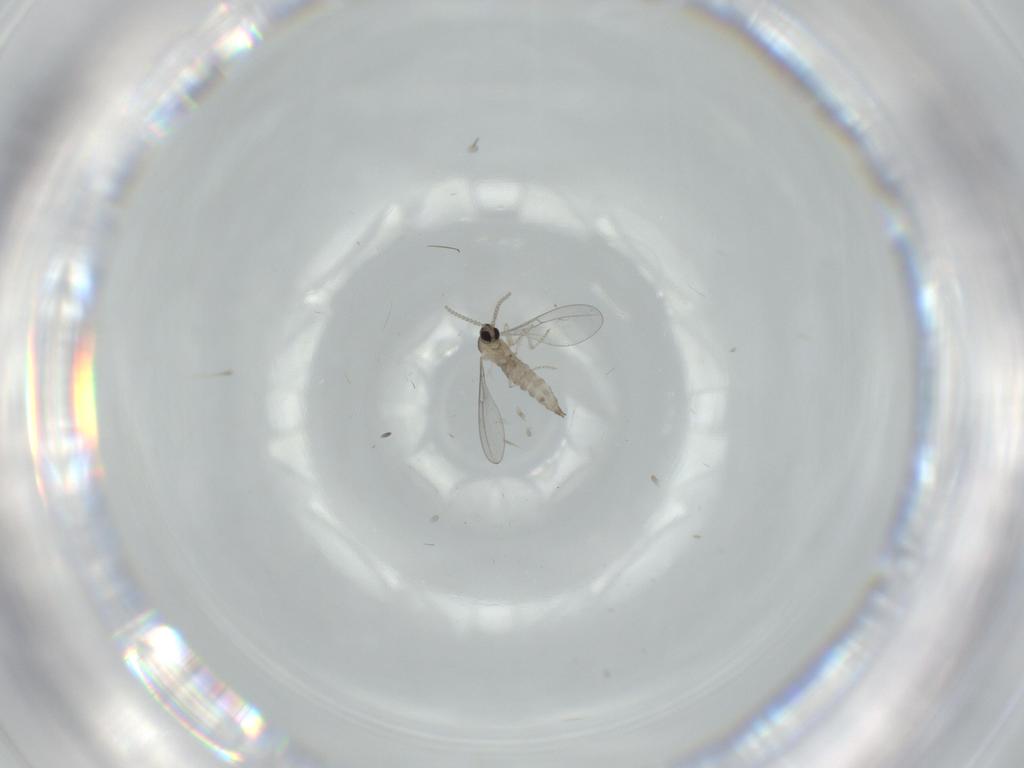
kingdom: Animalia
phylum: Arthropoda
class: Insecta
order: Diptera
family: Cecidomyiidae
